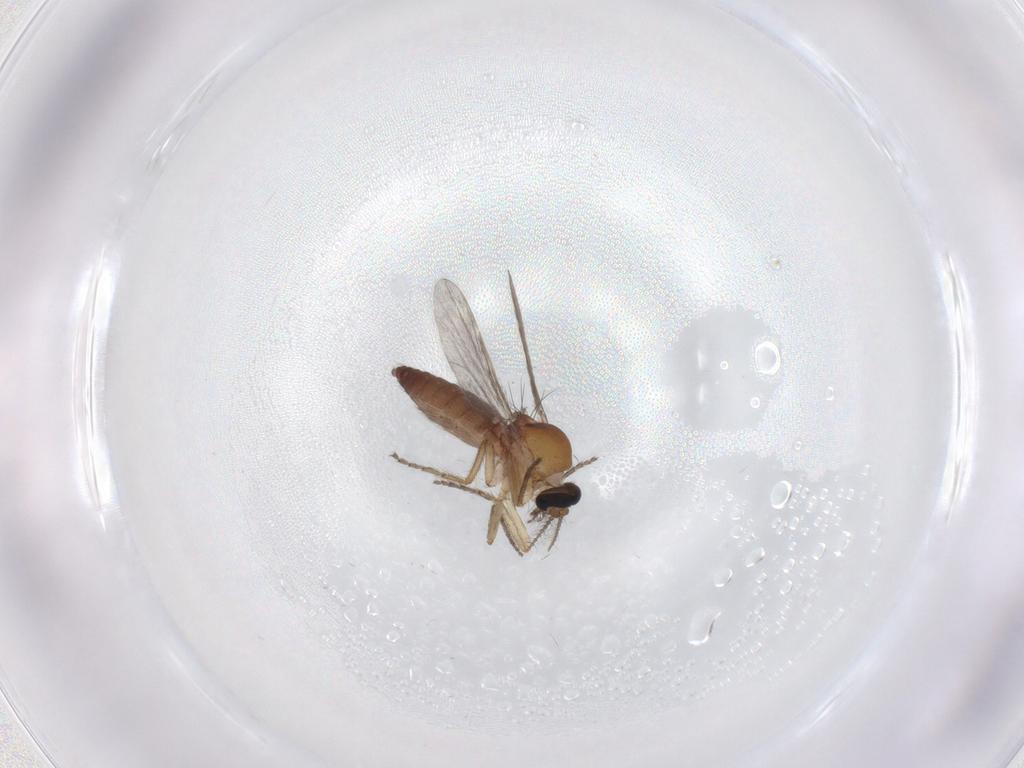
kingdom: Animalia
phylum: Arthropoda
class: Insecta
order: Diptera
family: Ceratopogonidae
